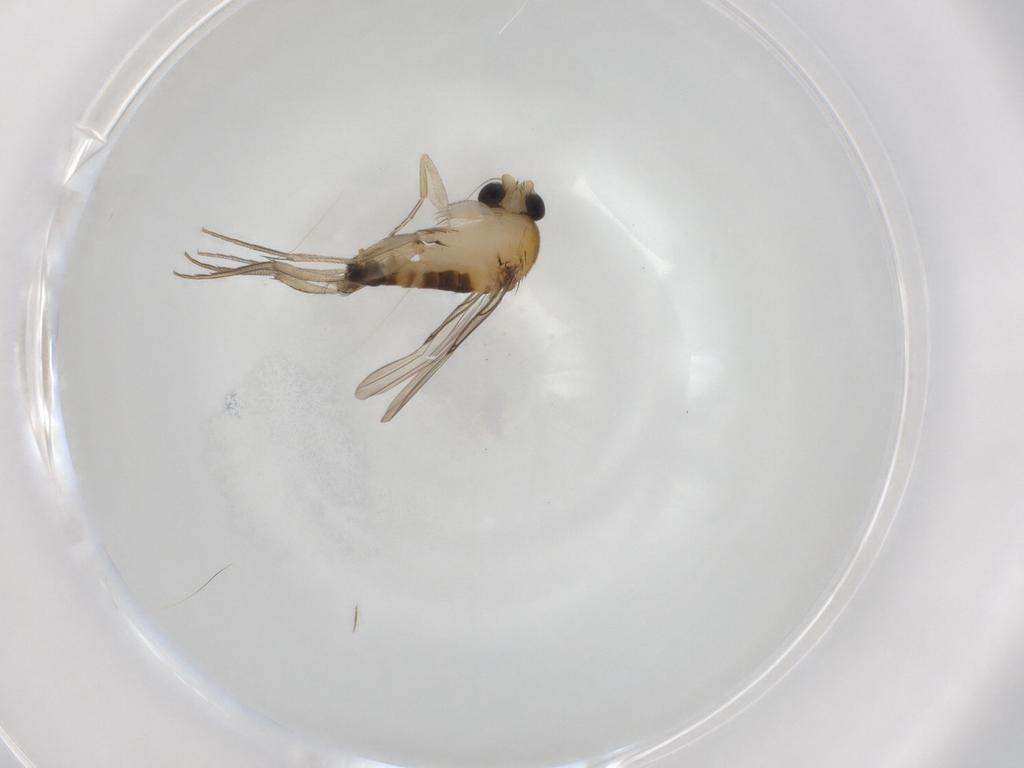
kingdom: Animalia
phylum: Arthropoda
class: Insecta
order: Diptera
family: Phoridae
